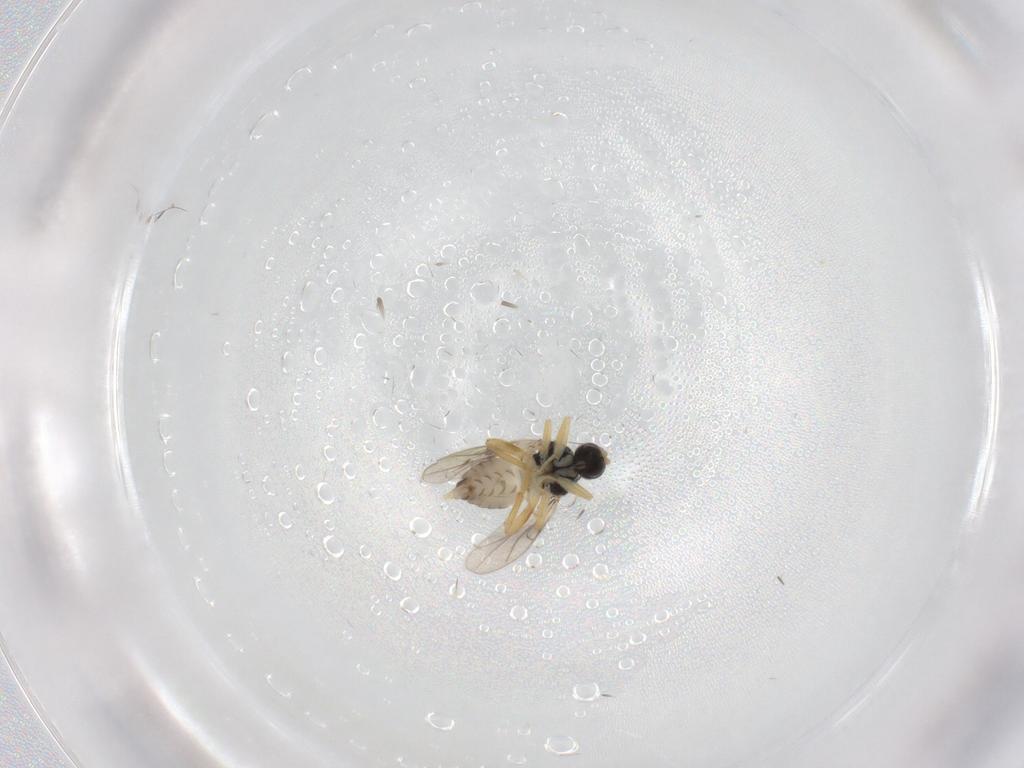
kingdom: Animalia
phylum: Arthropoda
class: Insecta
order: Diptera
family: Hybotidae
